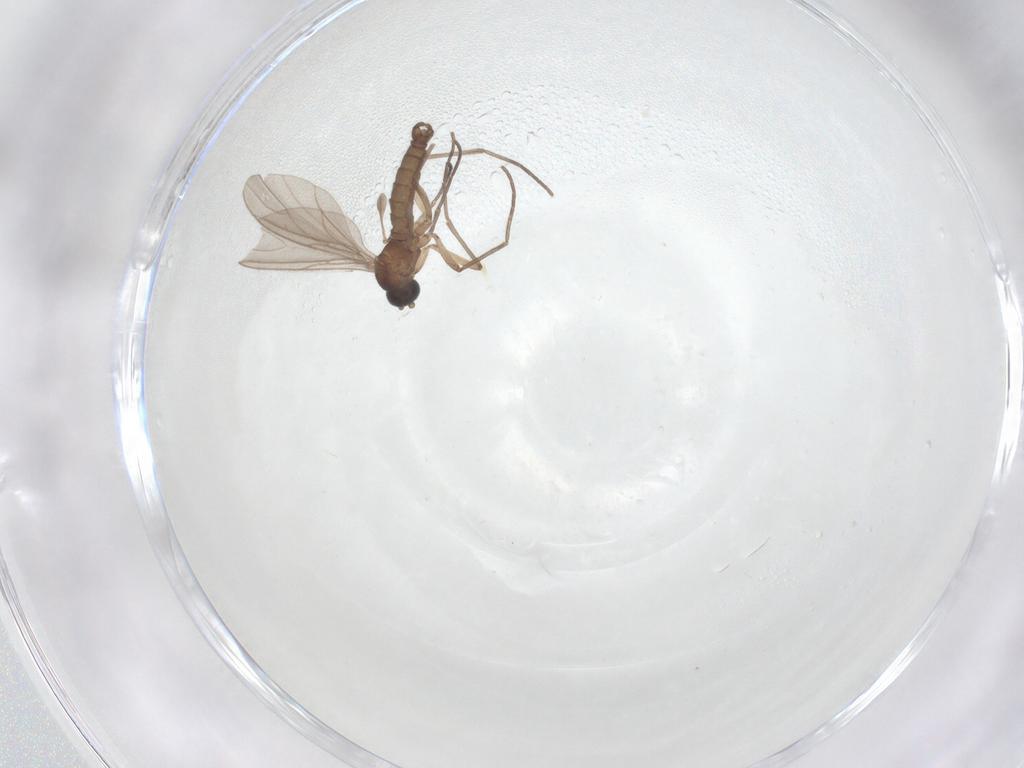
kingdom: Animalia
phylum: Arthropoda
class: Insecta
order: Diptera
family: Sciaridae
